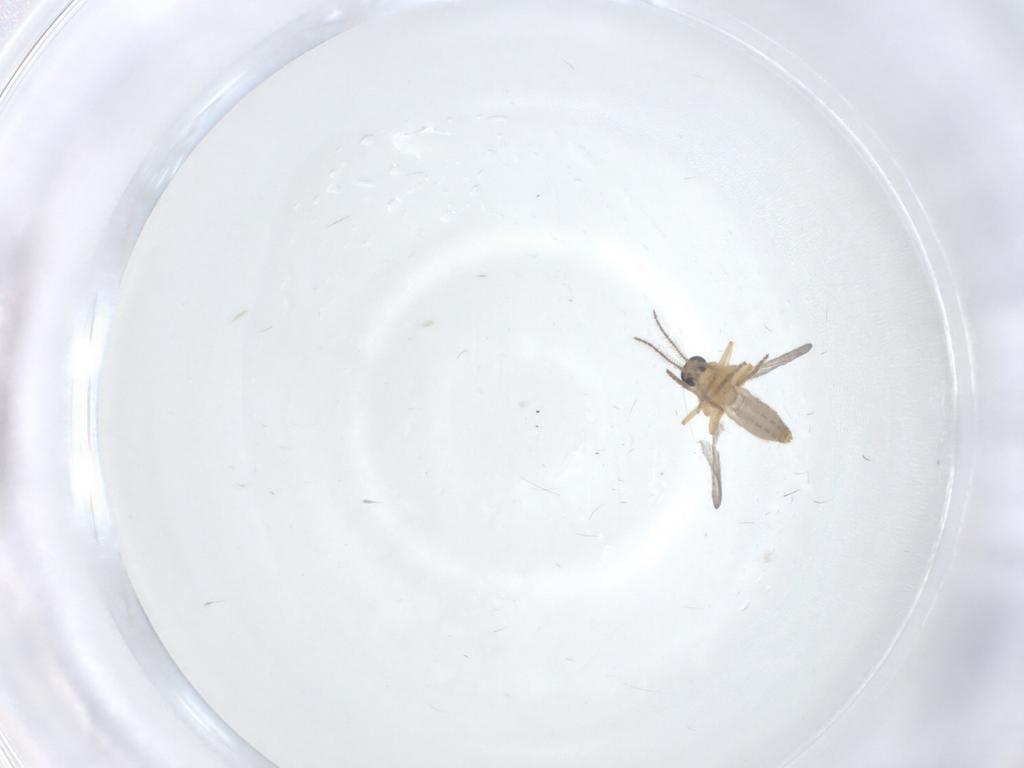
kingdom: Animalia
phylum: Arthropoda
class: Insecta
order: Diptera
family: Ceratopogonidae
